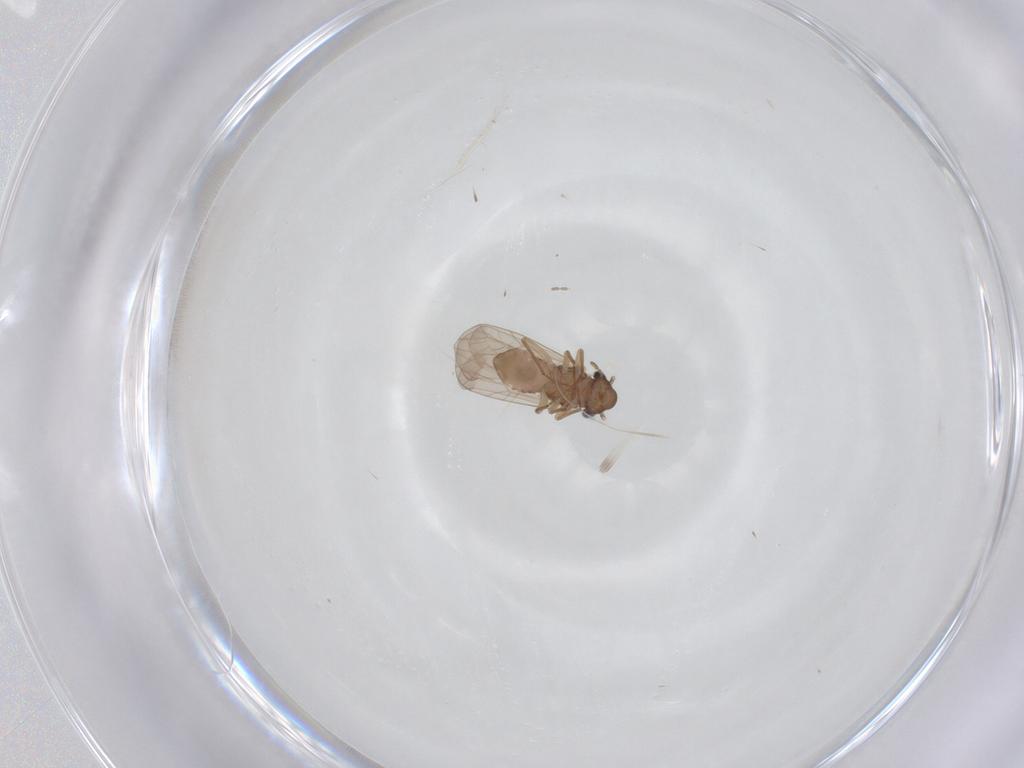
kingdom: Animalia
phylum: Arthropoda
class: Insecta
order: Psocodea
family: Lepidopsocidae
